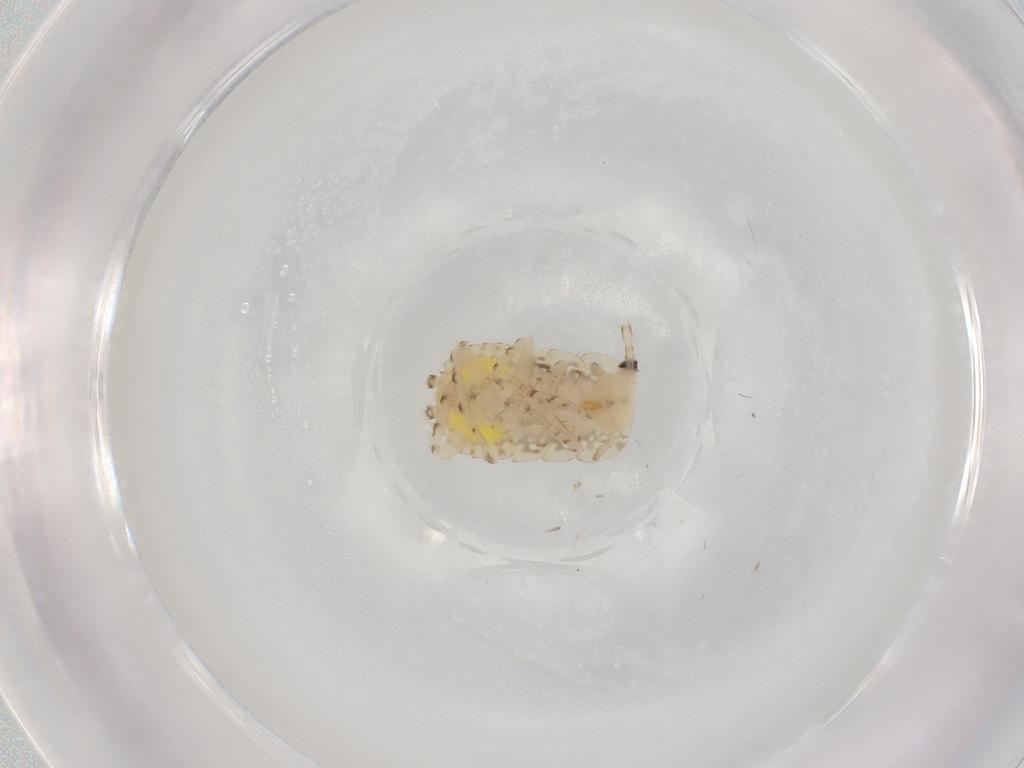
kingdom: Animalia
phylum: Arthropoda
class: Insecta
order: Blattodea
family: Ectobiidae
